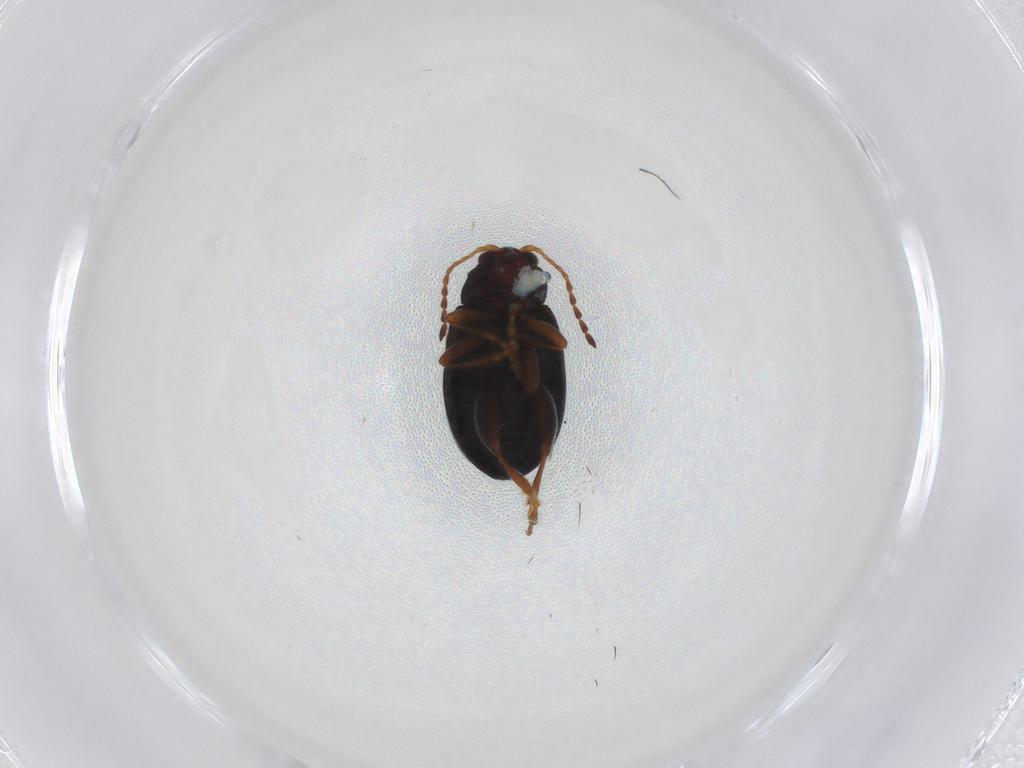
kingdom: Animalia
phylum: Arthropoda
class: Insecta
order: Coleoptera
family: Chrysomelidae
